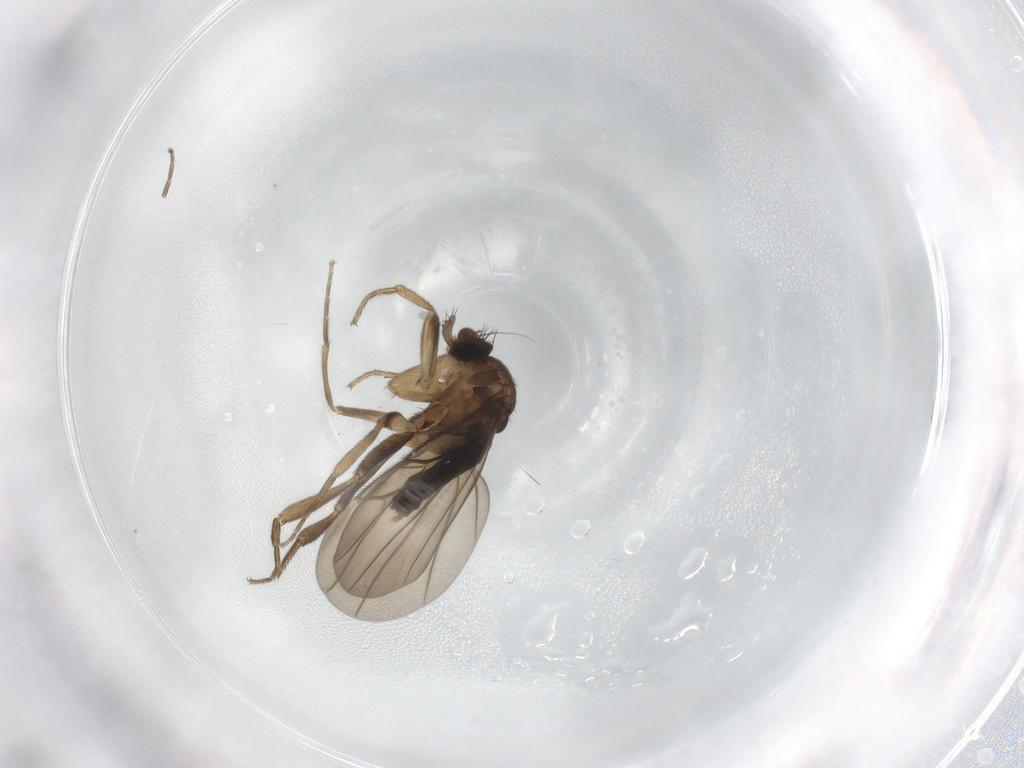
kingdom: Animalia
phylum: Arthropoda
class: Insecta
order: Diptera
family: Phoridae
